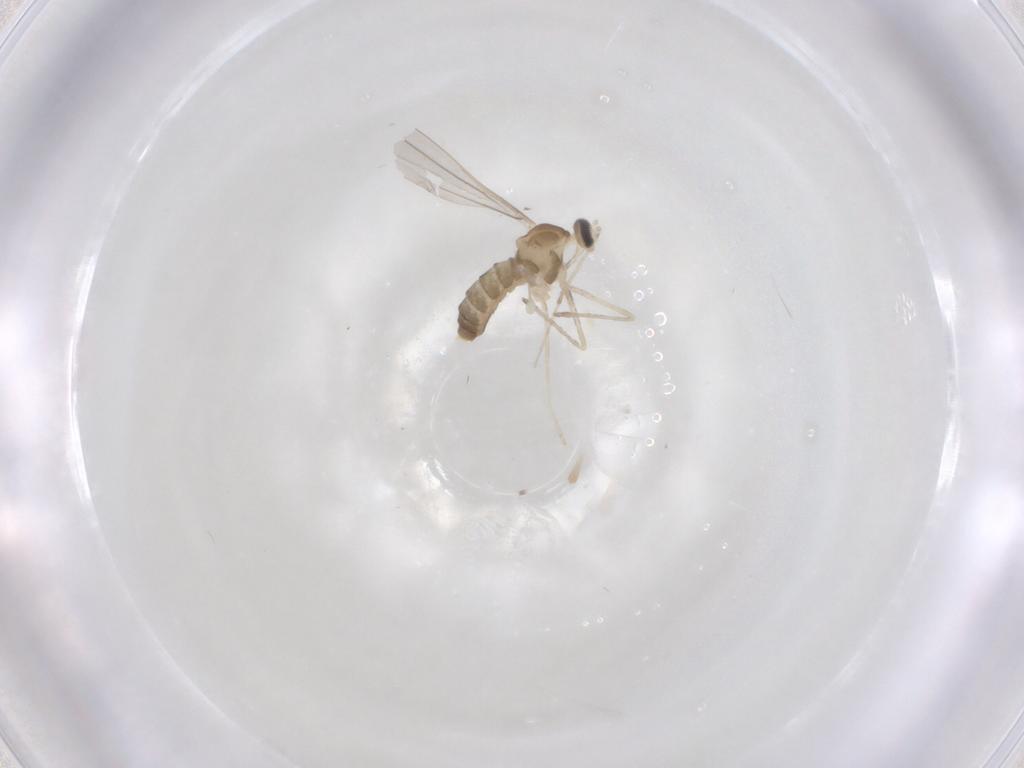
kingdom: Animalia
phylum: Arthropoda
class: Insecta
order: Diptera
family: Cecidomyiidae
